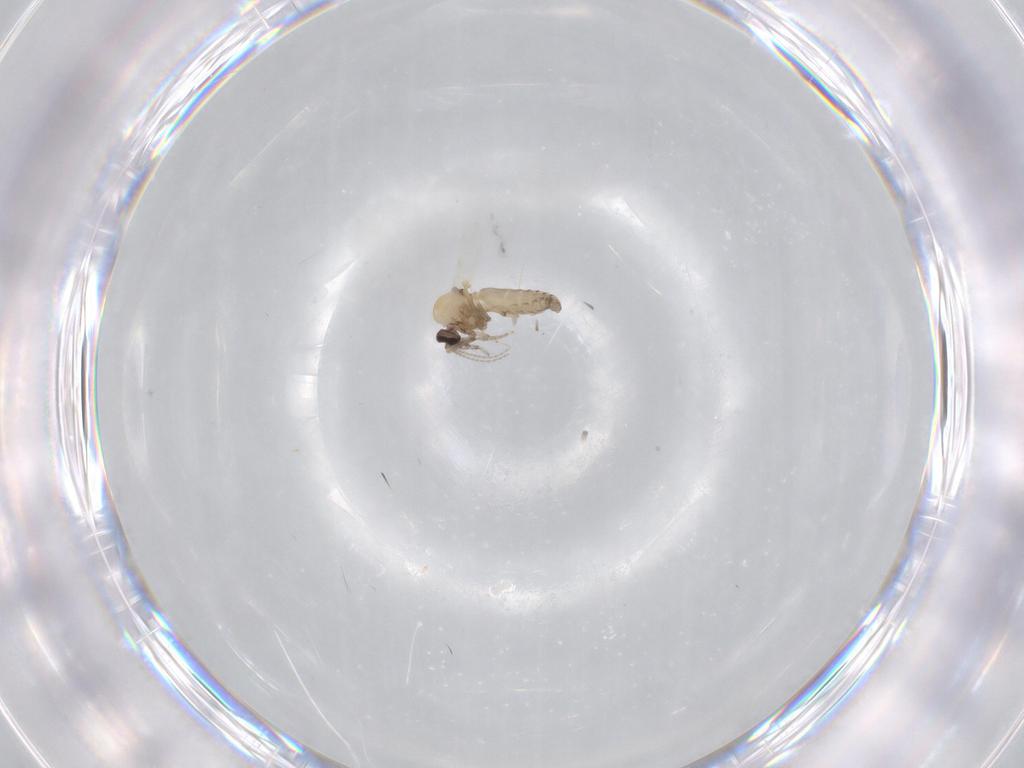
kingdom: Animalia
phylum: Arthropoda
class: Insecta
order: Diptera
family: Ceratopogonidae
